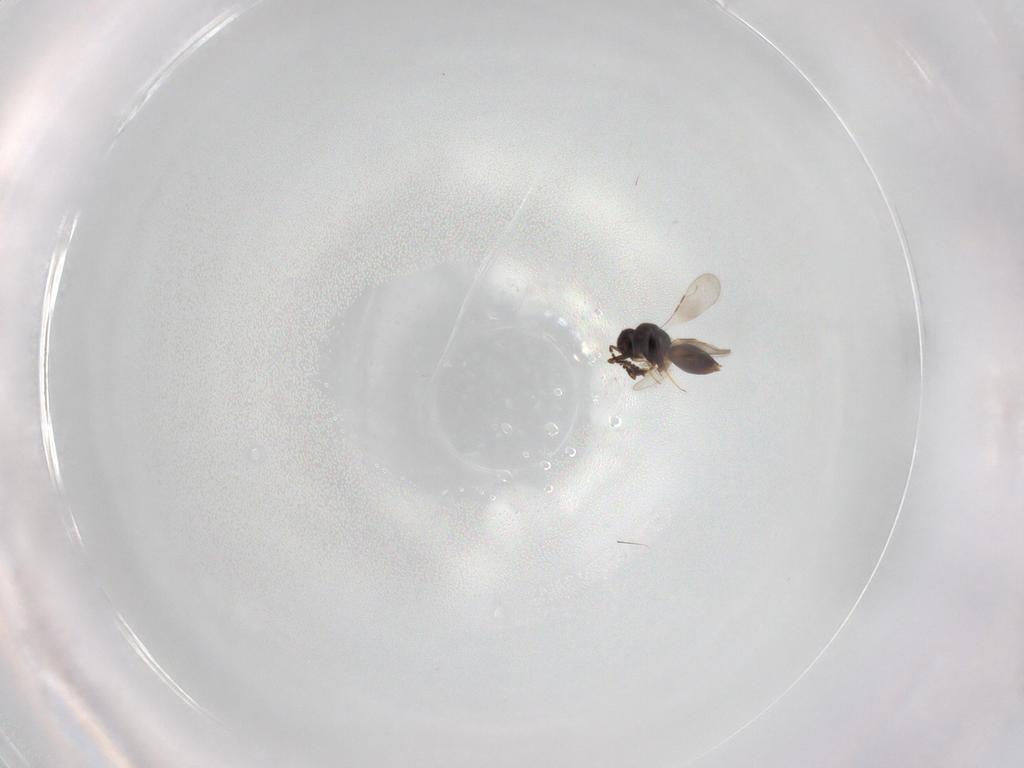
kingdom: Animalia
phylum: Arthropoda
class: Insecta
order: Hymenoptera
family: Ceraphronidae
